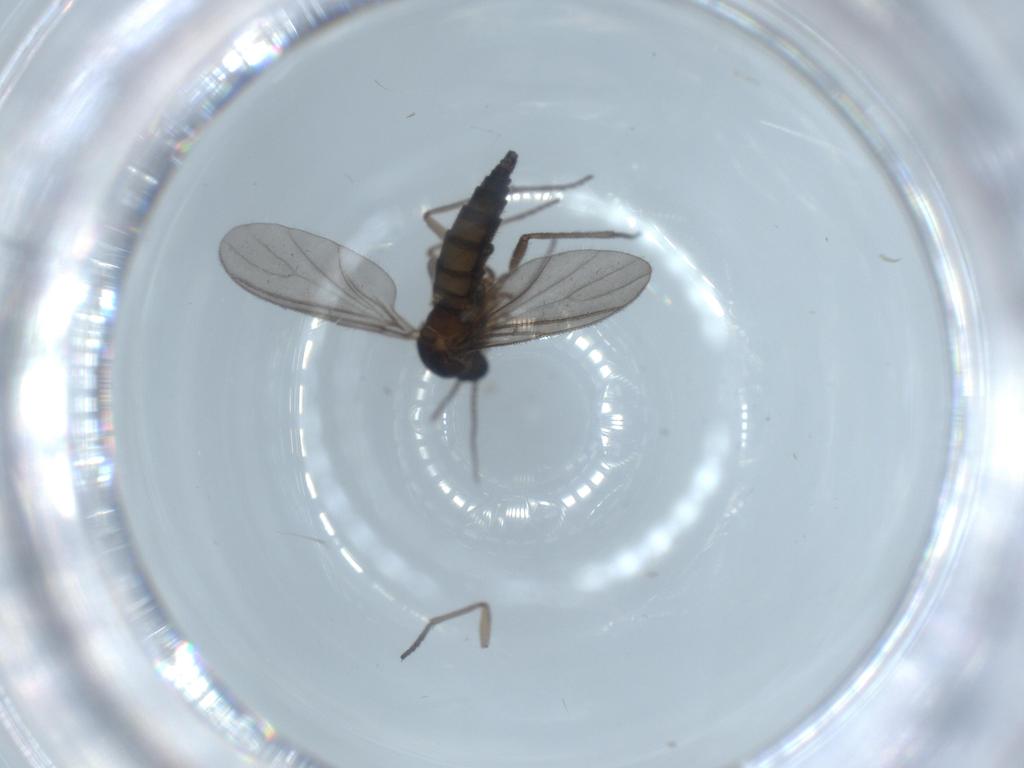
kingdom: Animalia
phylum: Arthropoda
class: Insecta
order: Diptera
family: Sciaridae
